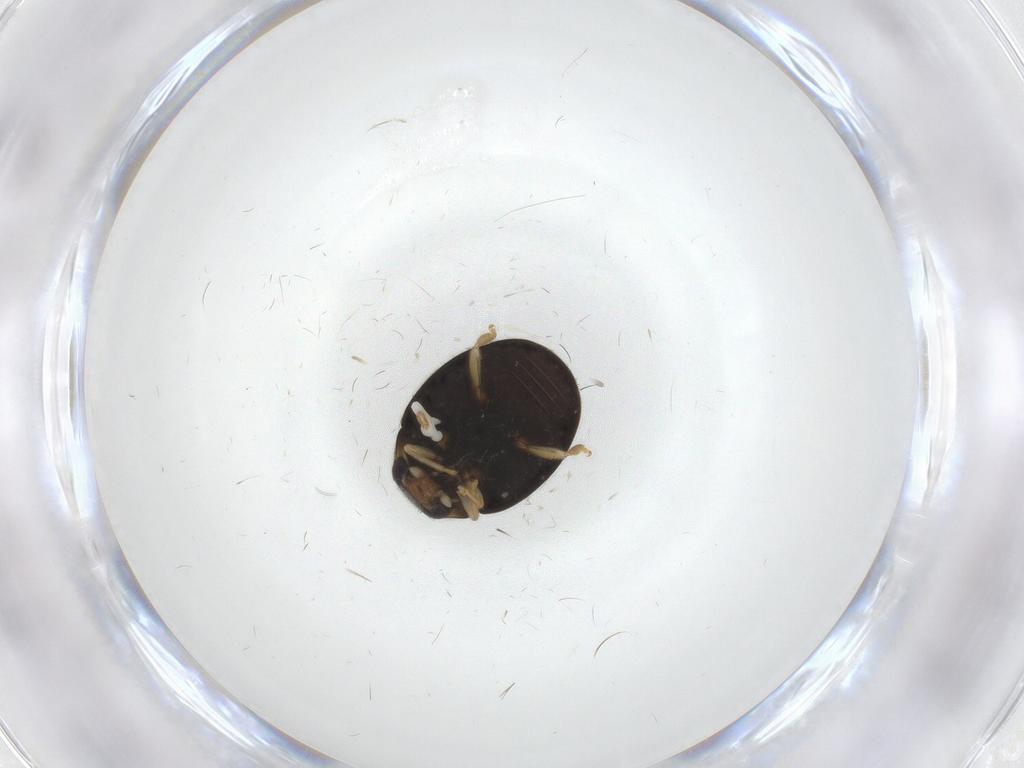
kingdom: Animalia
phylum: Arthropoda
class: Insecta
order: Coleoptera
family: Coccinellidae
